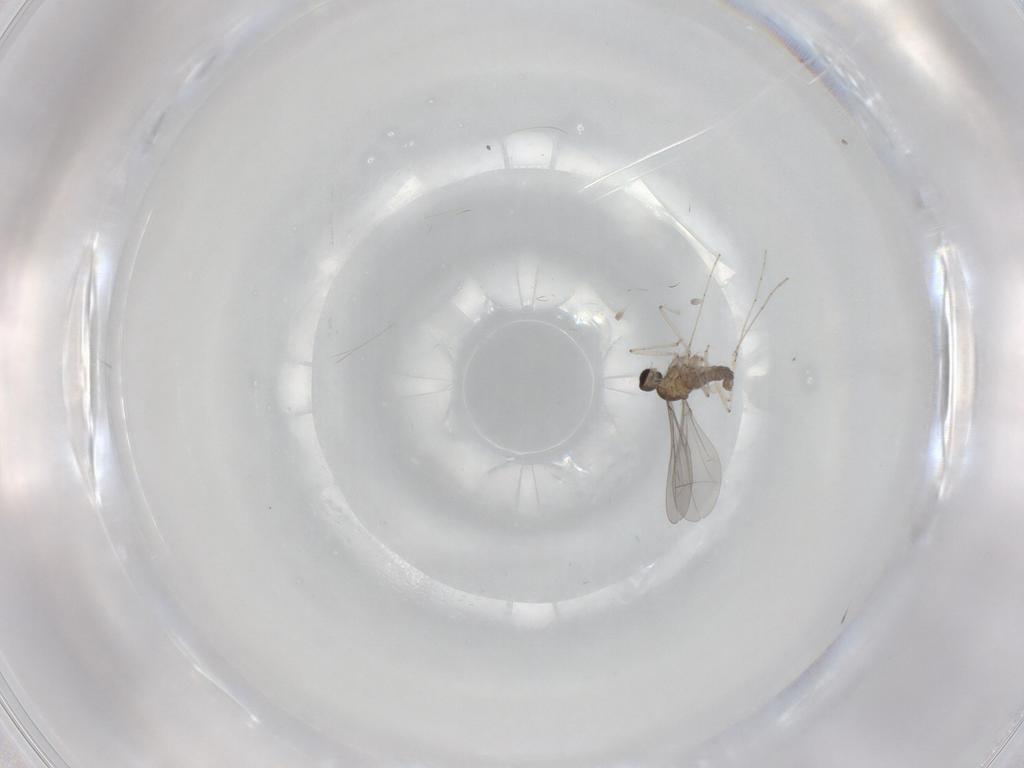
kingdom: Animalia
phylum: Arthropoda
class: Insecta
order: Diptera
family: Cecidomyiidae
